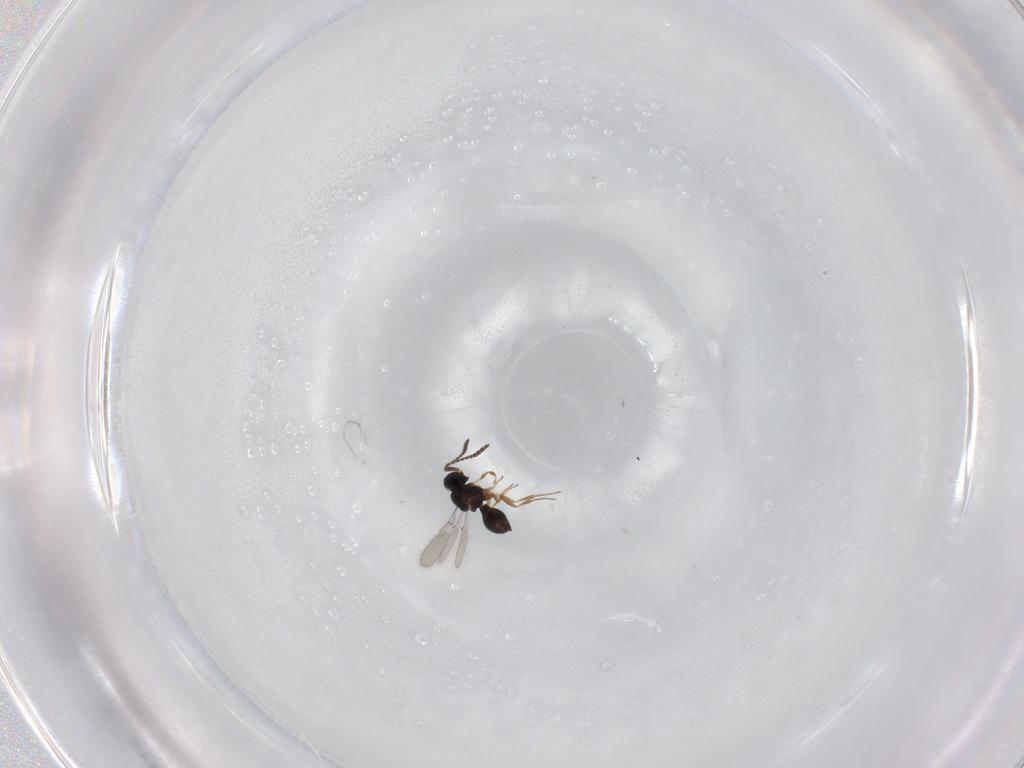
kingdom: Animalia
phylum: Arthropoda
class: Insecta
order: Hymenoptera
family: Scelionidae
